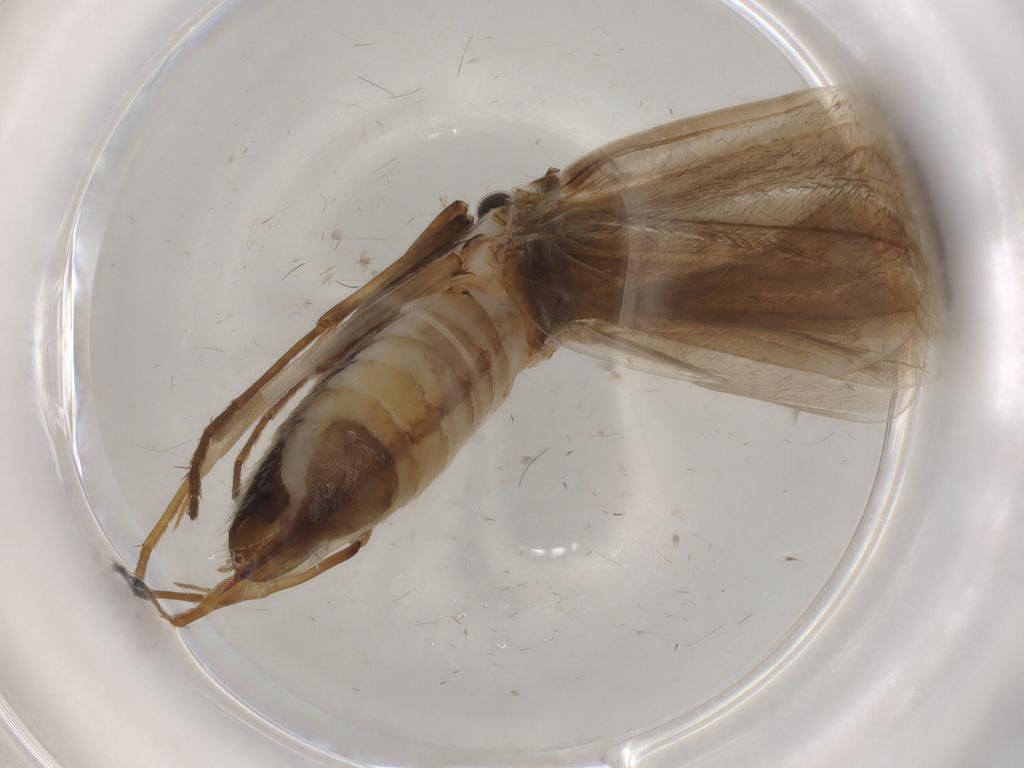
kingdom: Animalia
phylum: Arthropoda
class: Insecta
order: Lepidoptera
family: Adelidae
